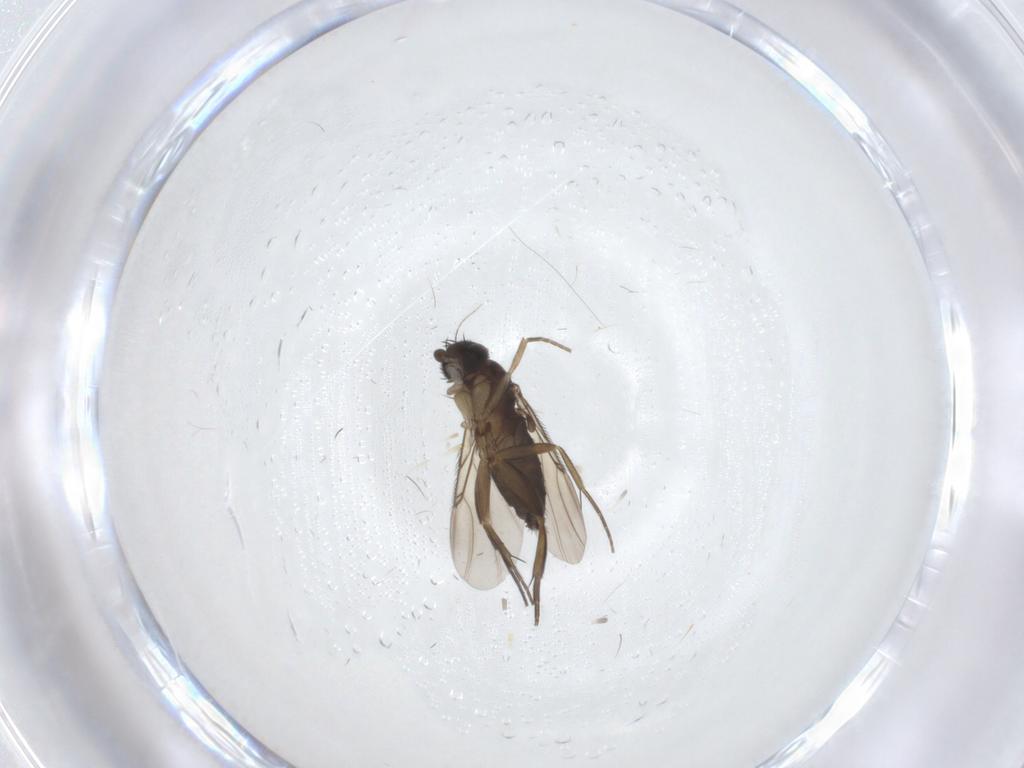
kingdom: Animalia
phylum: Arthropoda
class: Insecta
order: Diptera
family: Phoridae
